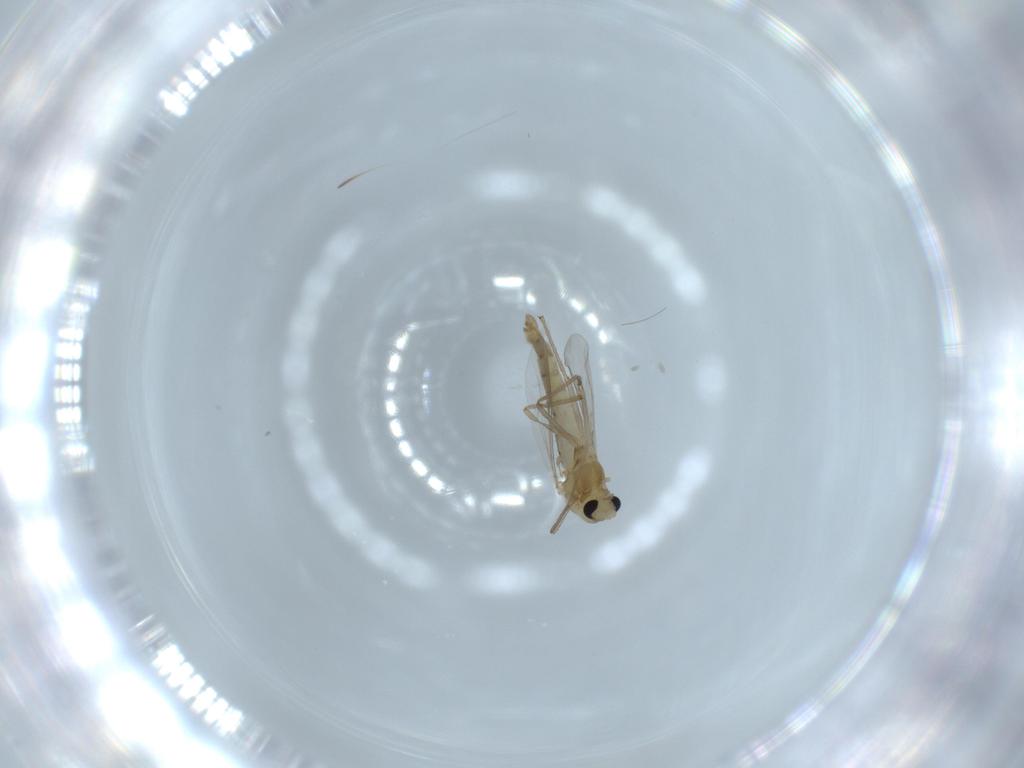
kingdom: Animalia
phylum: Arthropoda
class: Insecta
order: Diptera
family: Chironomidae
